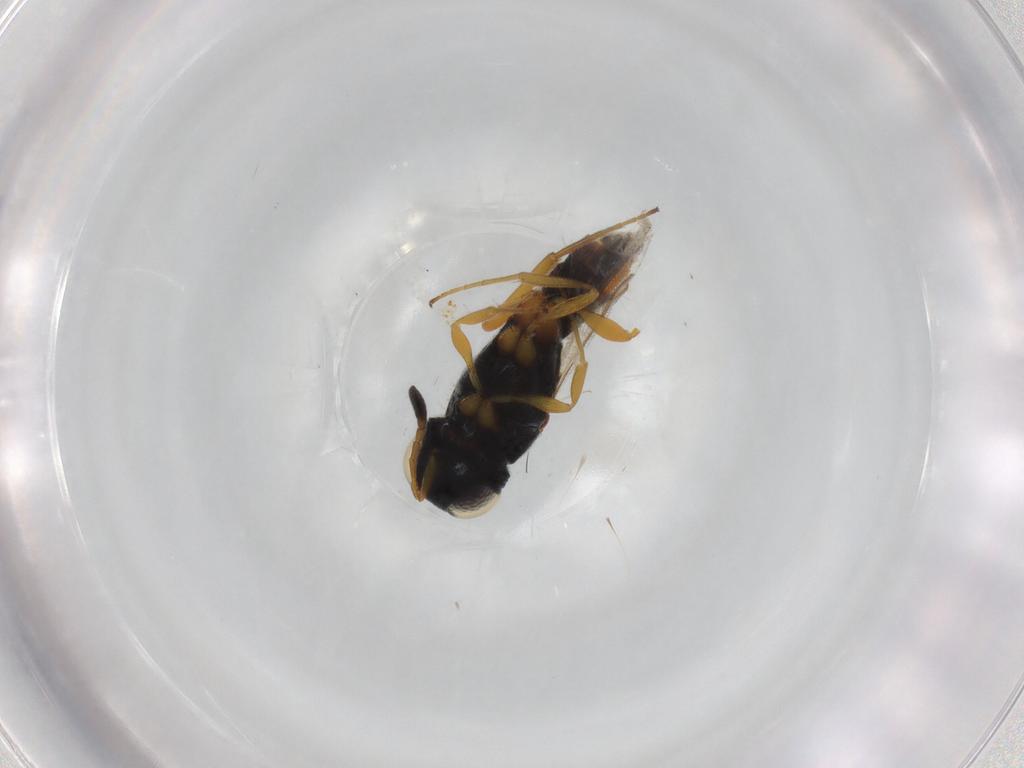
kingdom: Animalia
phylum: Arthropoda
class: Insecta
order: Hymenoptera
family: Scelionidae
